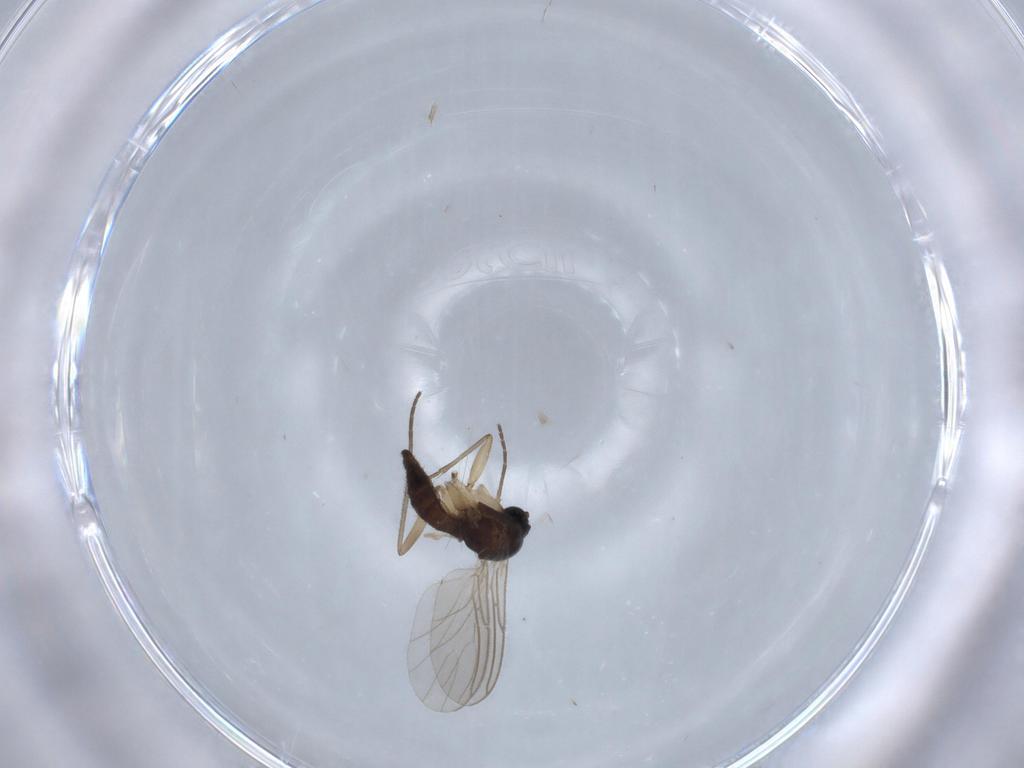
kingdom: Animalia
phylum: Arthropoda
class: Insecta
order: Diptera
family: Sciaridae
